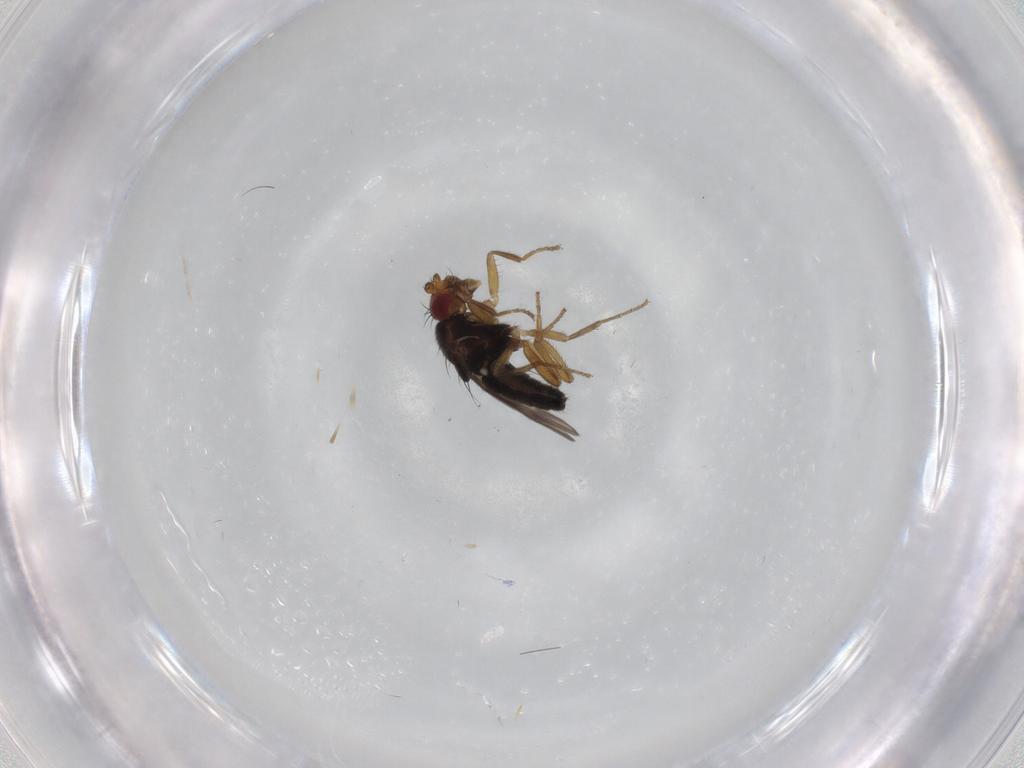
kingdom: Animalia
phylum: Arthropoda
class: Insecta
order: Diptera
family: Sphaeroceridae
